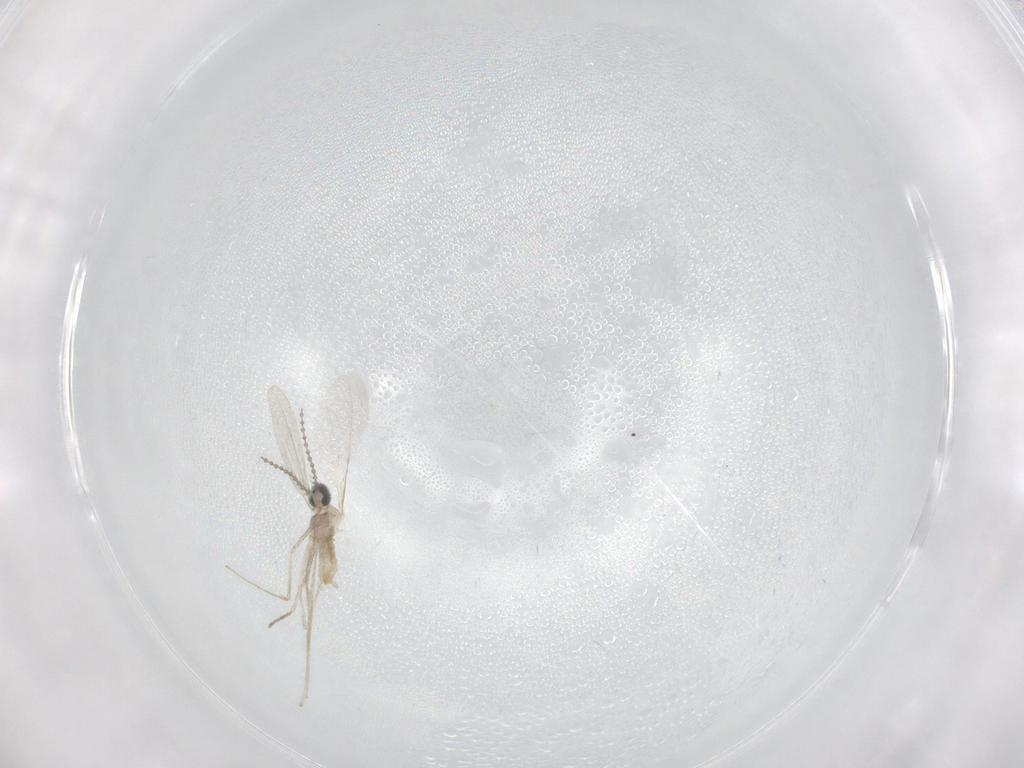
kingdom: Animalia
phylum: Arthropoda
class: Insecta
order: Diptera
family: Cecidomyiidae
